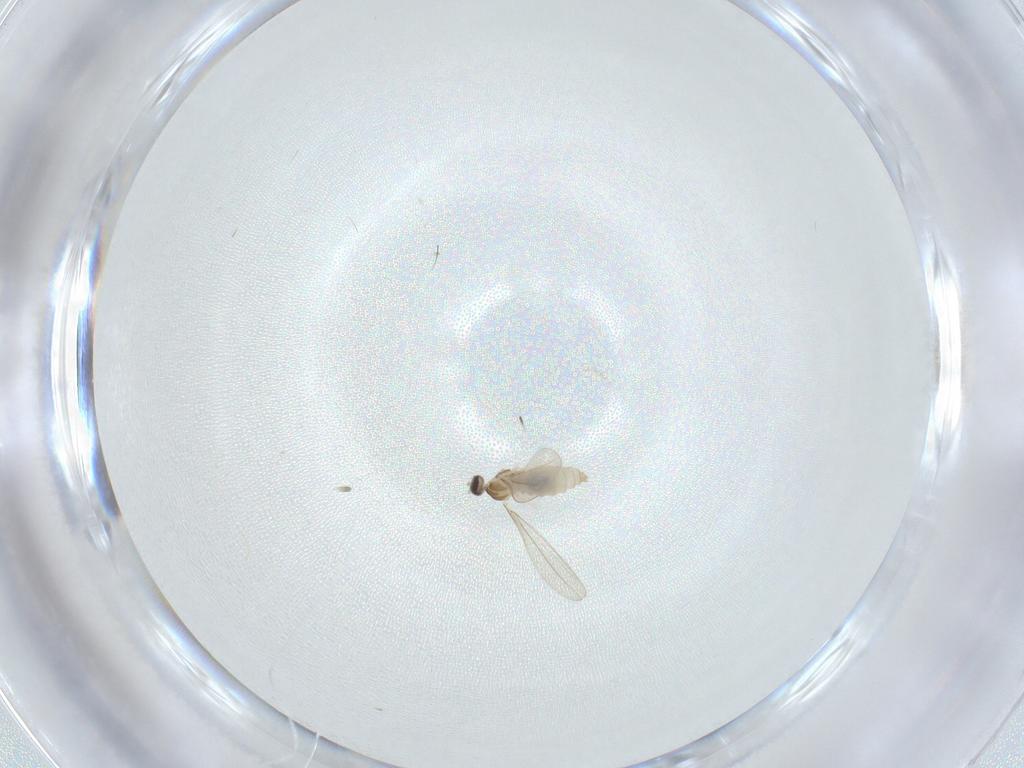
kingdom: Animalia
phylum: Arthropoda
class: Insecta
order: Diptera
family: Cecidomyiidae
